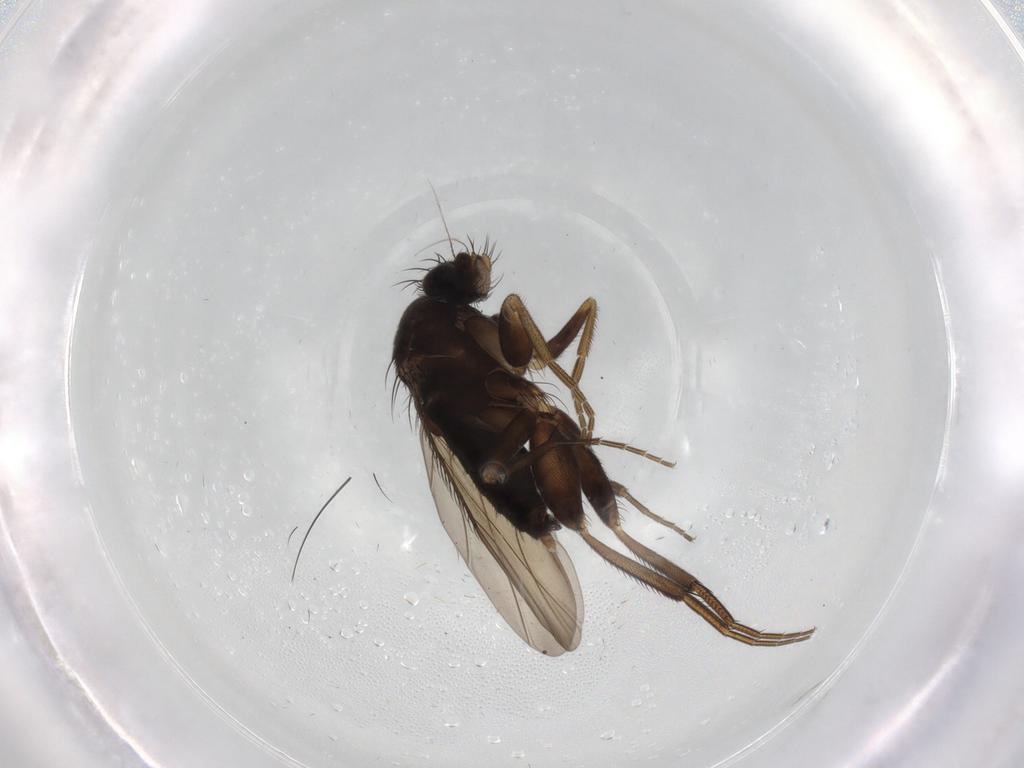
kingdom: Animalia
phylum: Arthropoda
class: Insecta
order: Diptera
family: Phoridae
